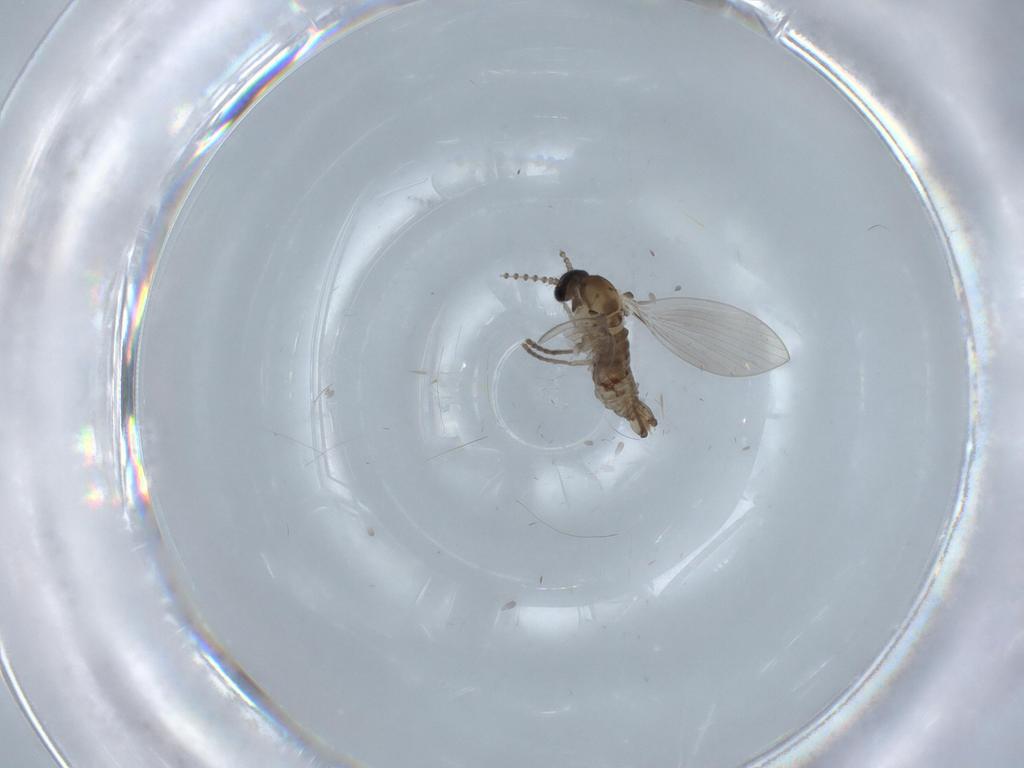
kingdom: Animalia
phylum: Arthropoda
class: Insecta
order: Diptera
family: Psychodidae
